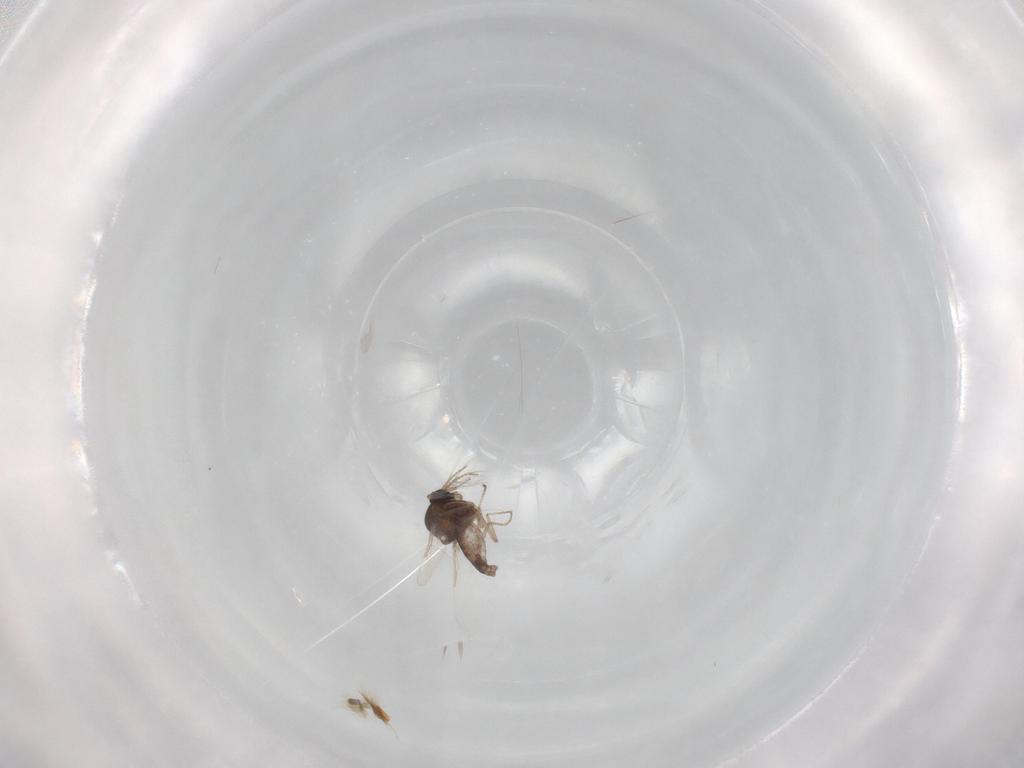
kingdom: Animalia
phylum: Arthropoda
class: Insecta
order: Diptera
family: Ceratopogonidae
